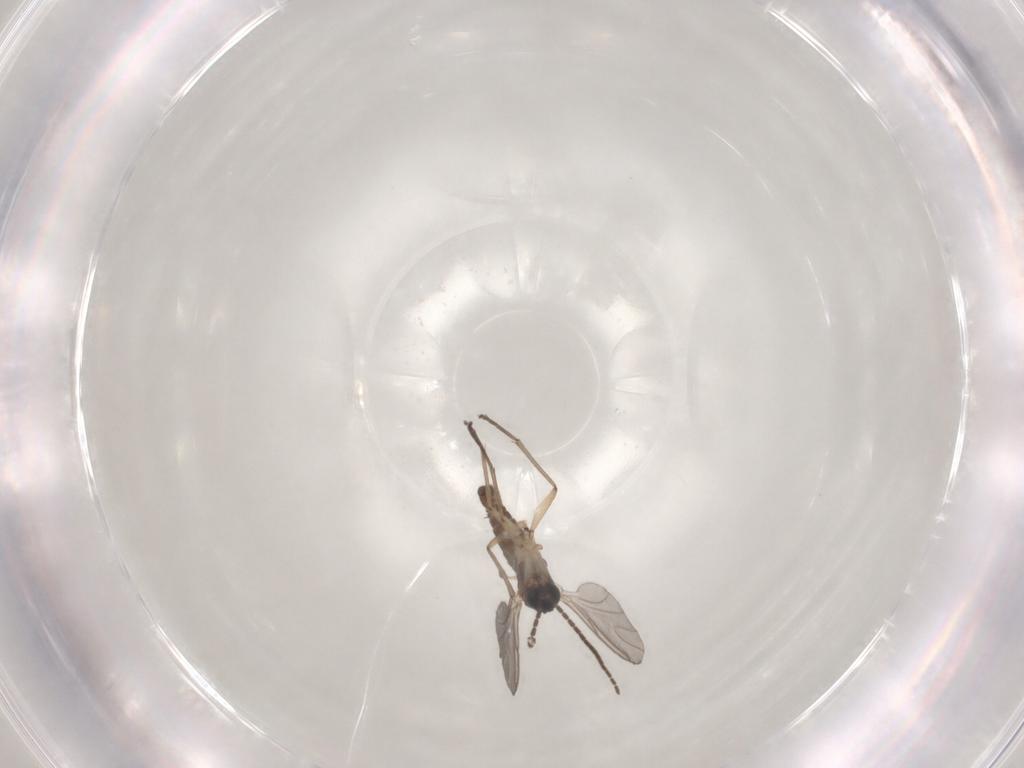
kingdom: Animalia
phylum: Arthropoda
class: Insecta
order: Diptera
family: Sciaridae
